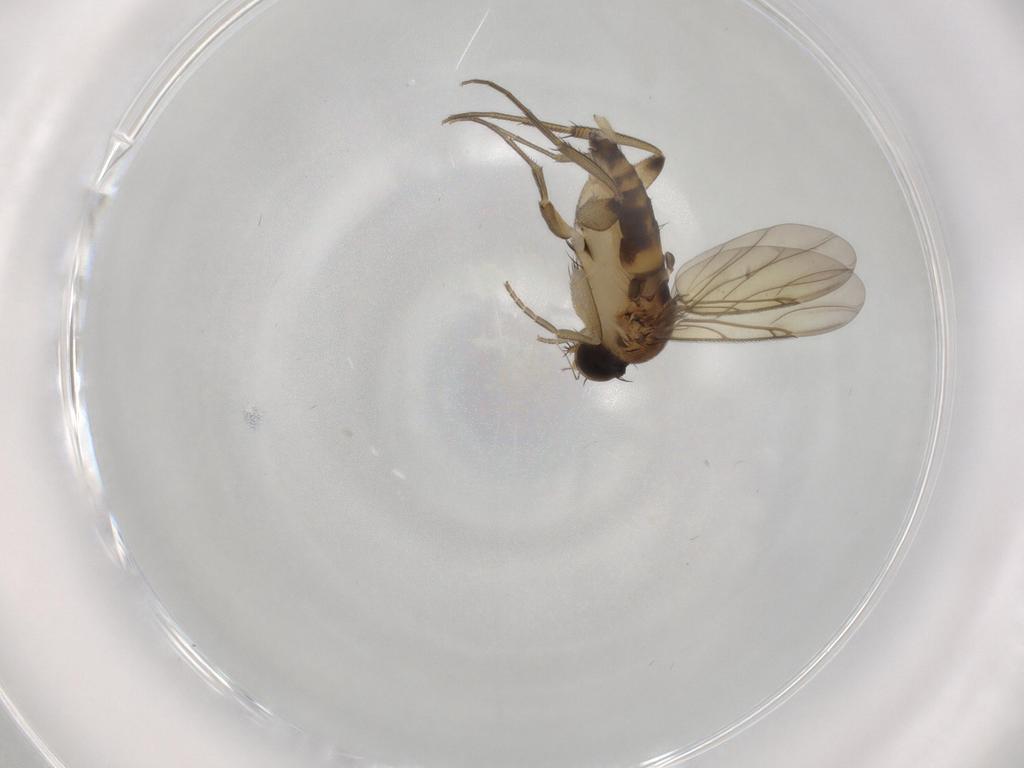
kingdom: Animalia
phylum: Arthropoda
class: Insecta
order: Diptera
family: Phoridae
